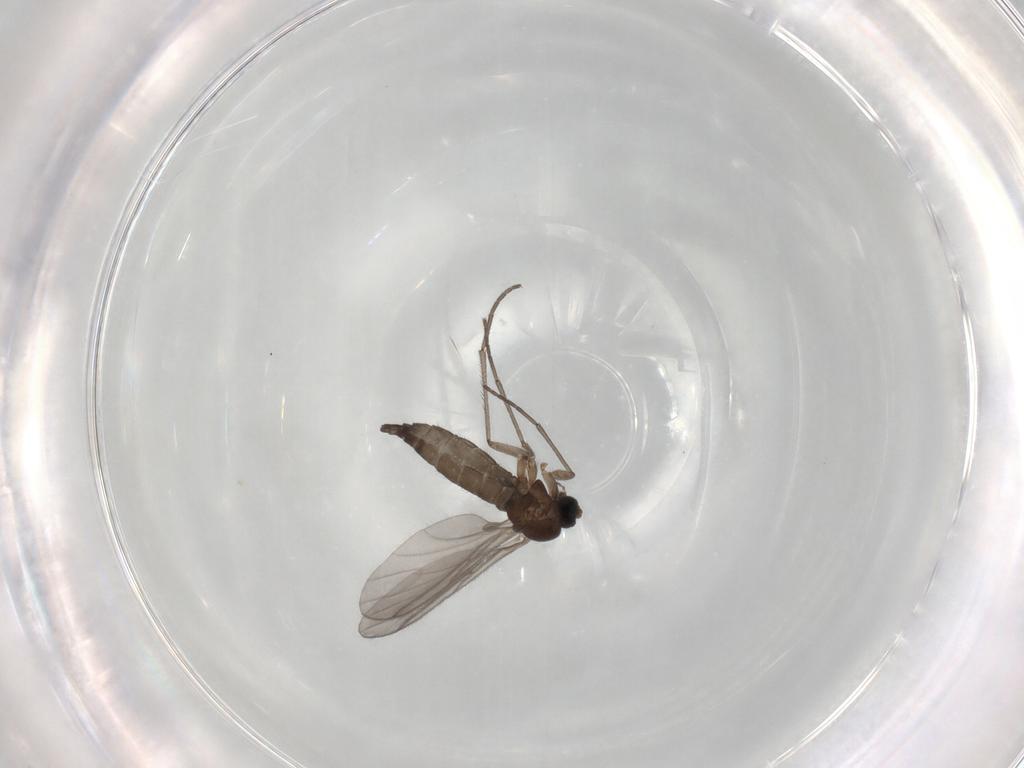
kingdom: Animalia
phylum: Arthropoda
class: Insecta
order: Diptera
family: Sciaridae
